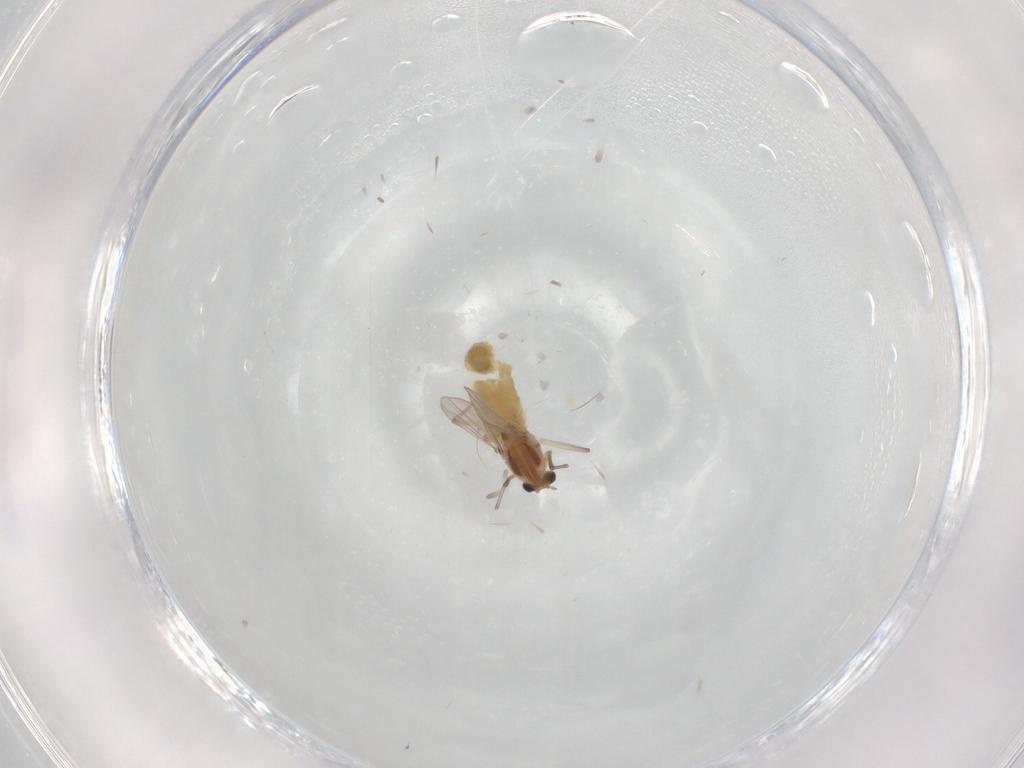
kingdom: Animalia
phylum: Arthropoda
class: Insecta
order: Diptera
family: Chironomidae
